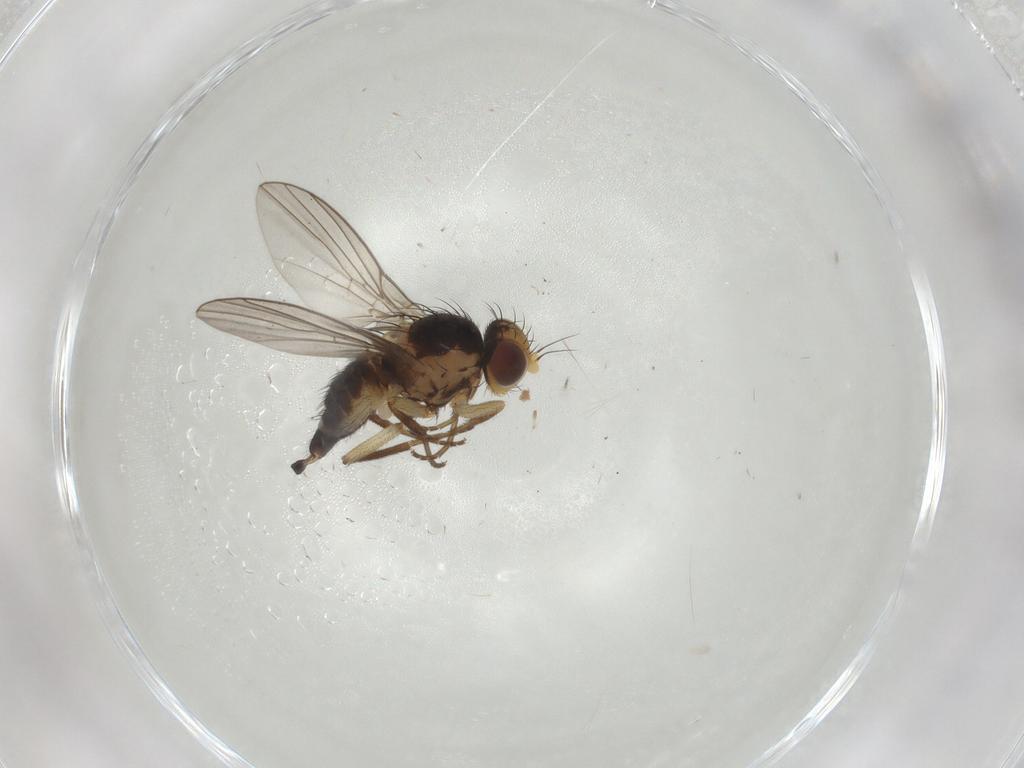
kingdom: Animalia
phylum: Arthropoda
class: Insecta
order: Diptera
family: Agromyzidae
